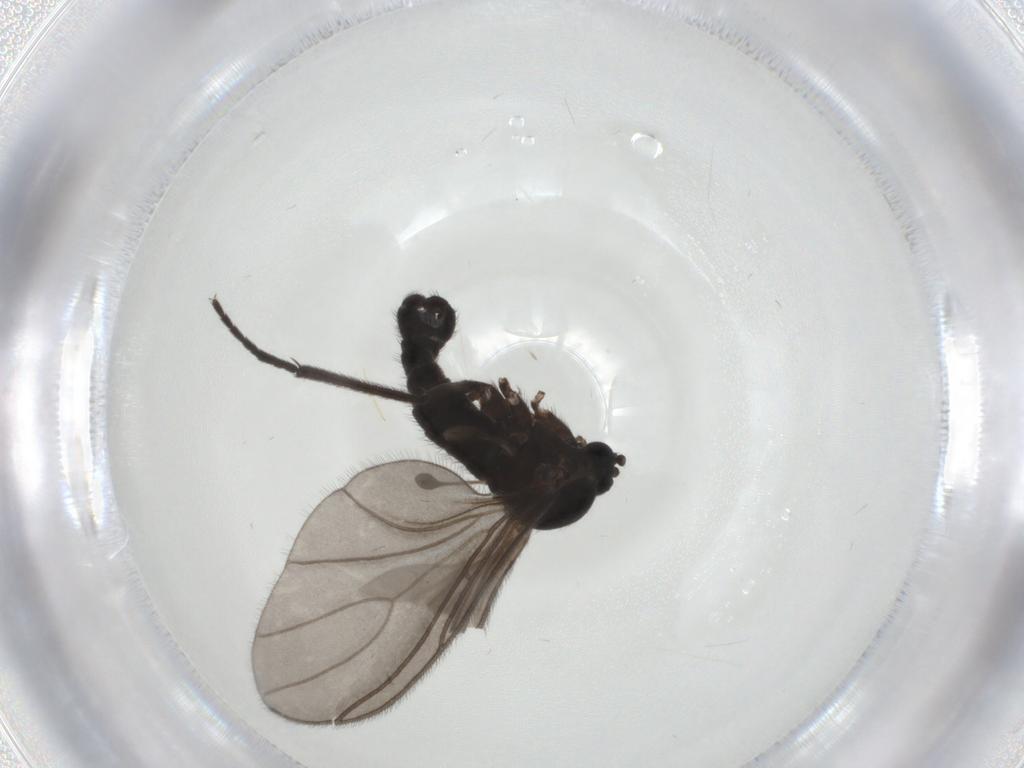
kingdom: Animalia
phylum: Arthropoda
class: Insecta
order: Diptera
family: Sciaridae
